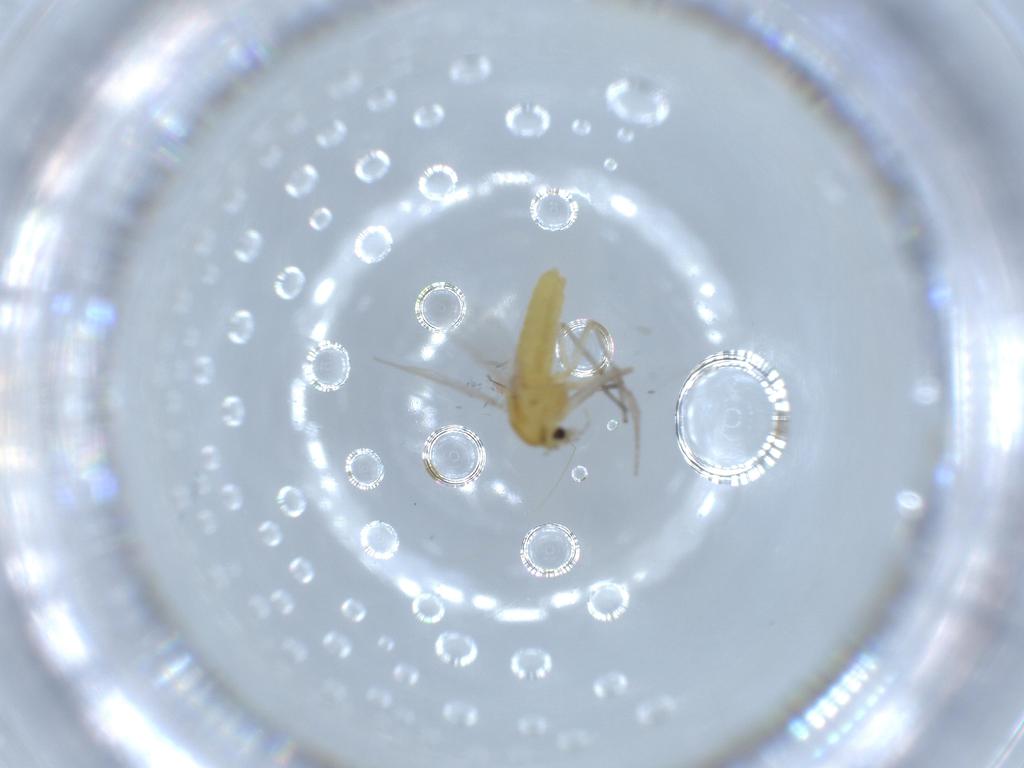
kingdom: Animalia
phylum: Arthropoda
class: Insecta
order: Diptera
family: Chironomidae
